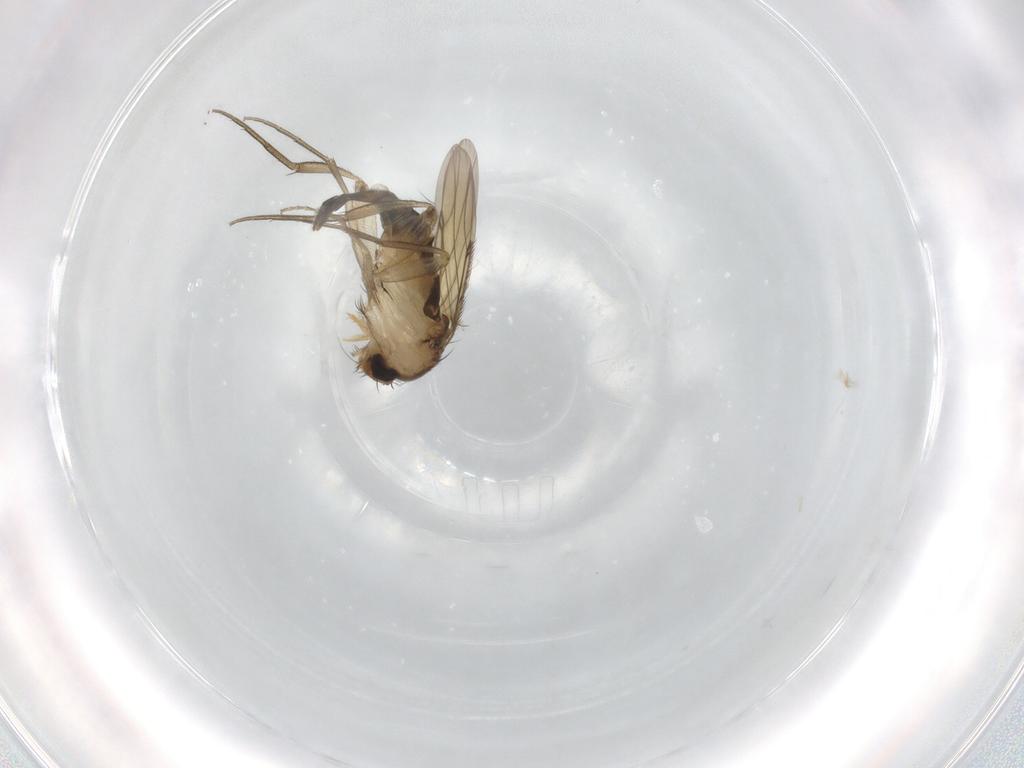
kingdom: Animalia
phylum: Arthropoda
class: Insecta
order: Diptera
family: Phoridae
